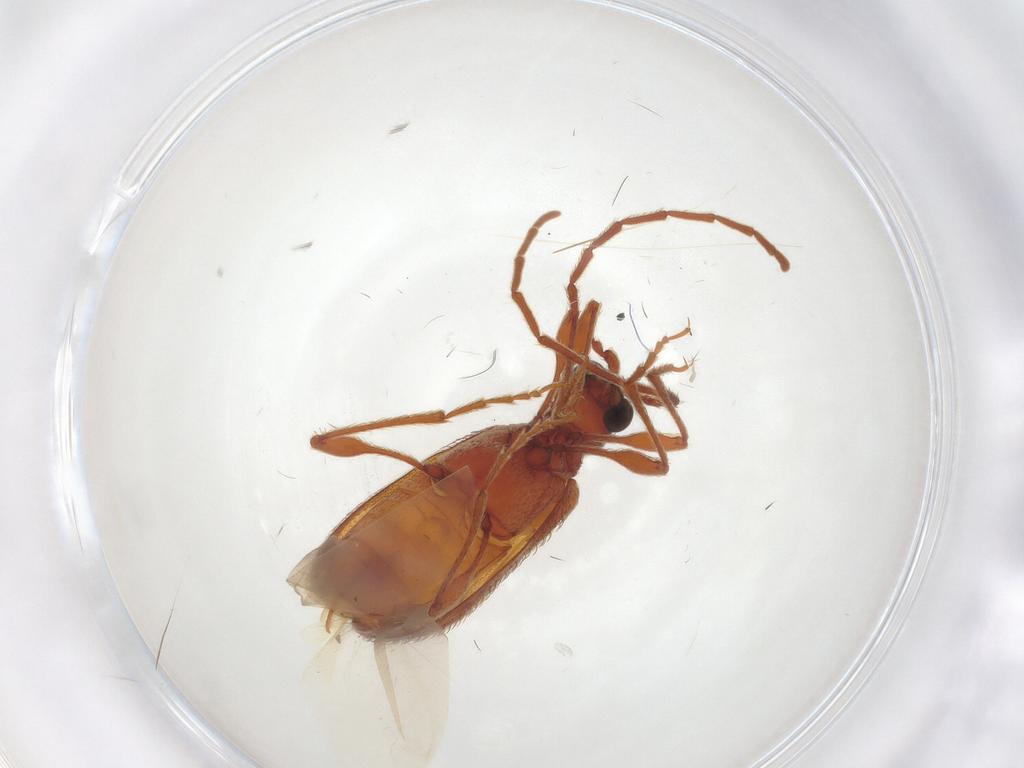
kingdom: Animalia
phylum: Arthropoda
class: Insecta
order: Coleoptera
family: Ptinidae
